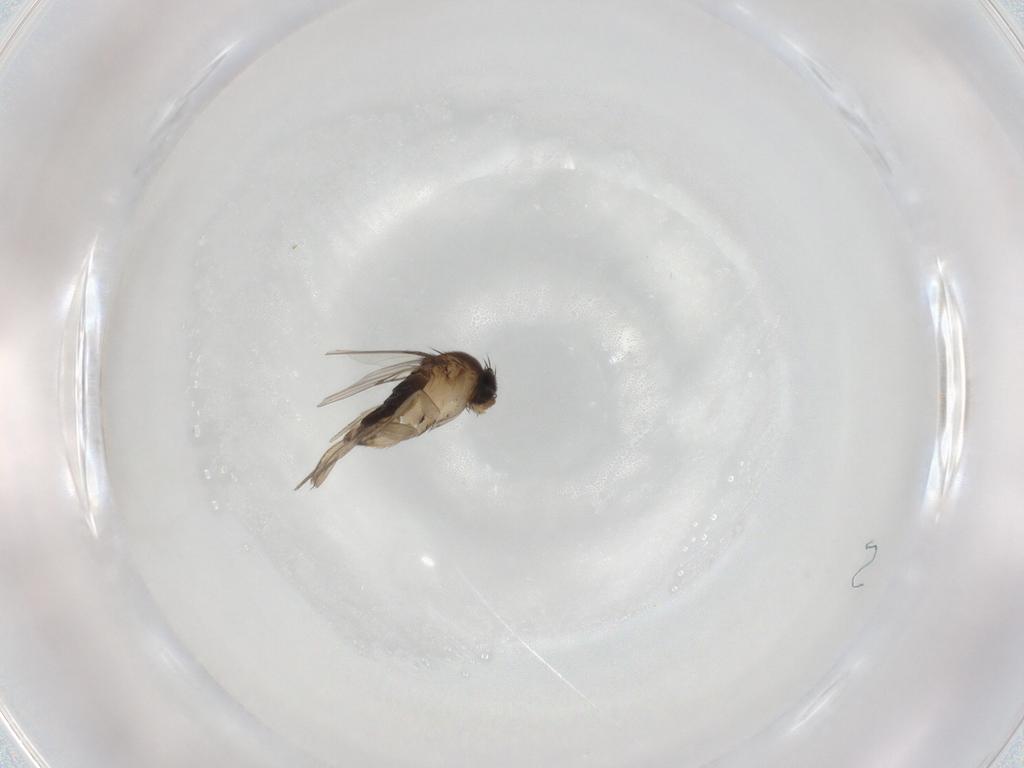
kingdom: Animalia
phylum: Arthropoda
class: Insecta
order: Diptera
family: Phoridae
